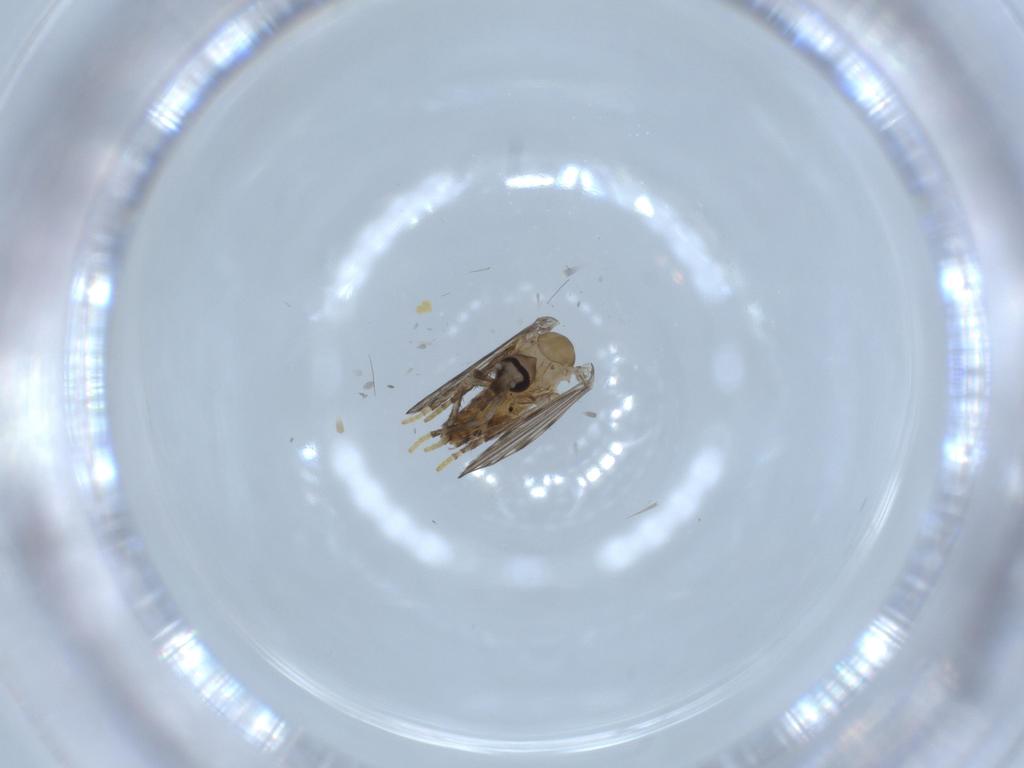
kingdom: Animalia
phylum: Arthropoda
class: Insecta
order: Diptera
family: Psychodidae
